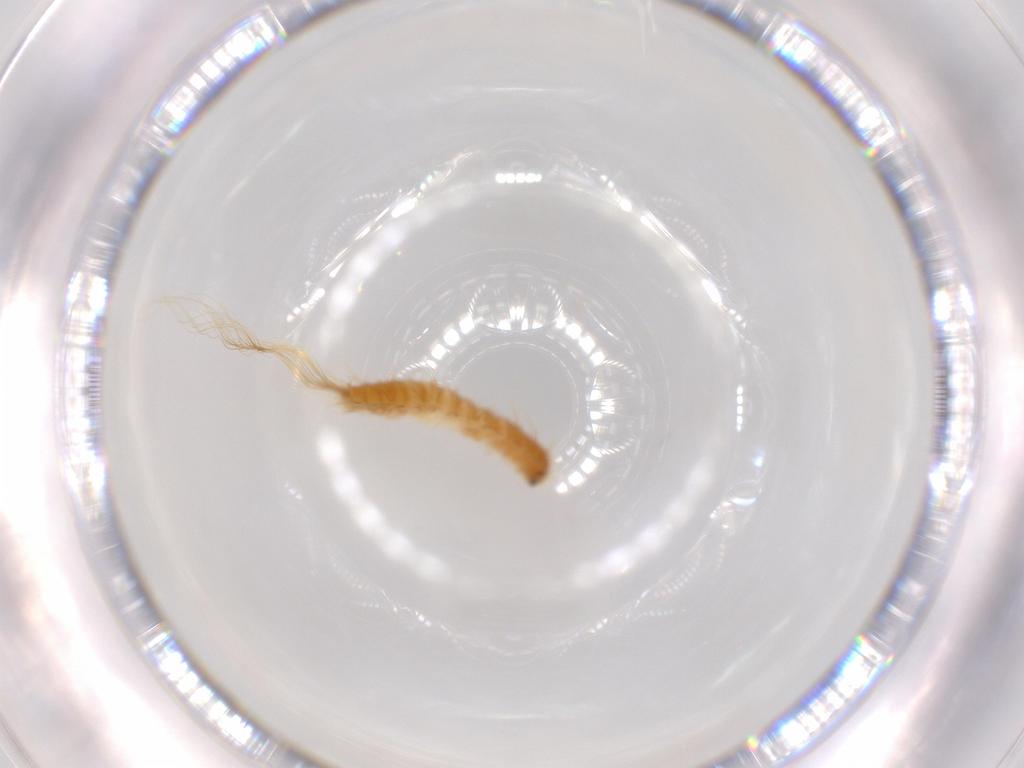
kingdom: Animalia
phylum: Arthropoda
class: Insecta
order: Coleoptera
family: Dermestidae
